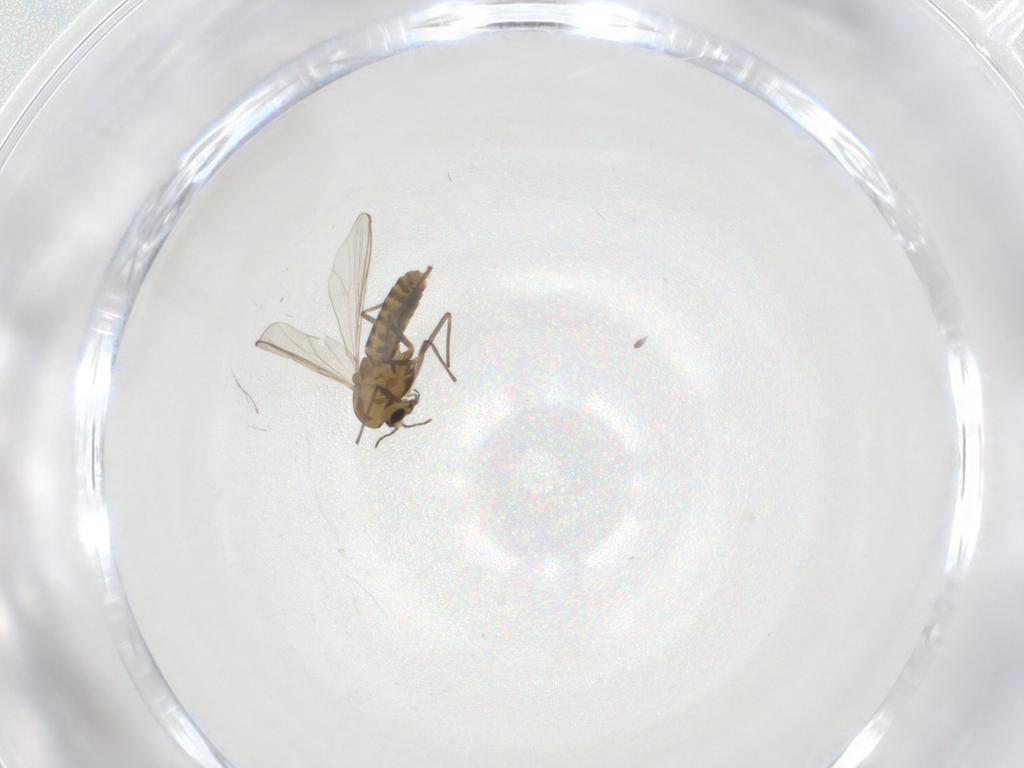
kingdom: Animalia
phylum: Arthropoda
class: Insecta
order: Diptera
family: Chironomidae
